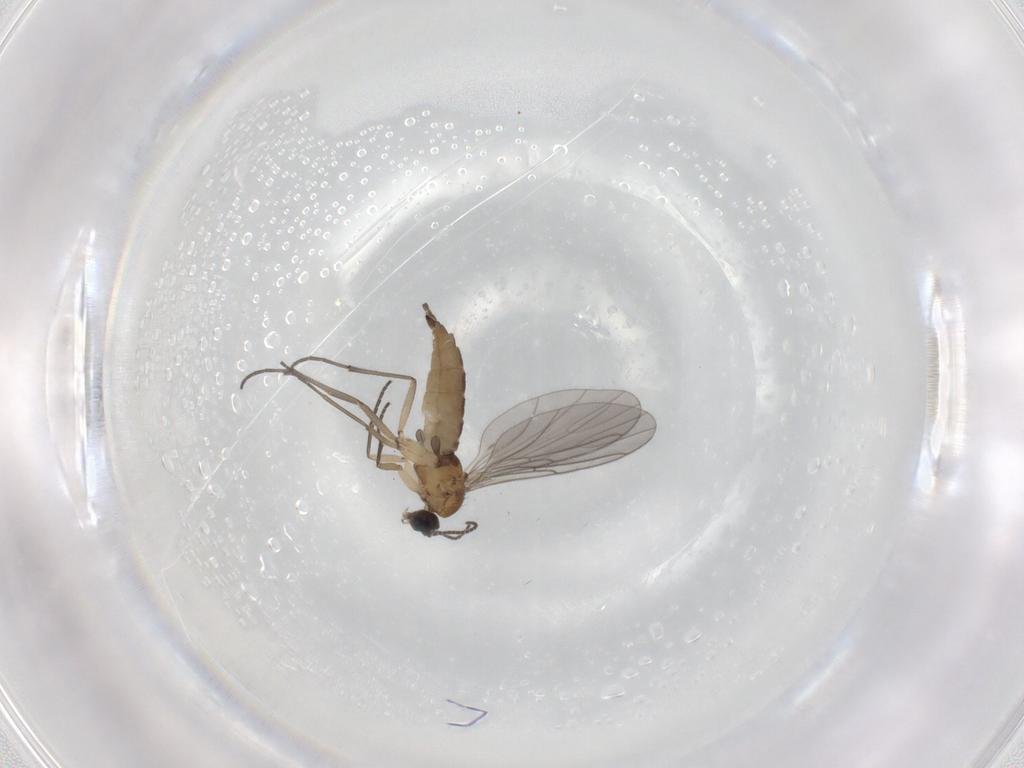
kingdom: Animalia
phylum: Arthropoda
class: Insecta
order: Diptera
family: Sciaridae
